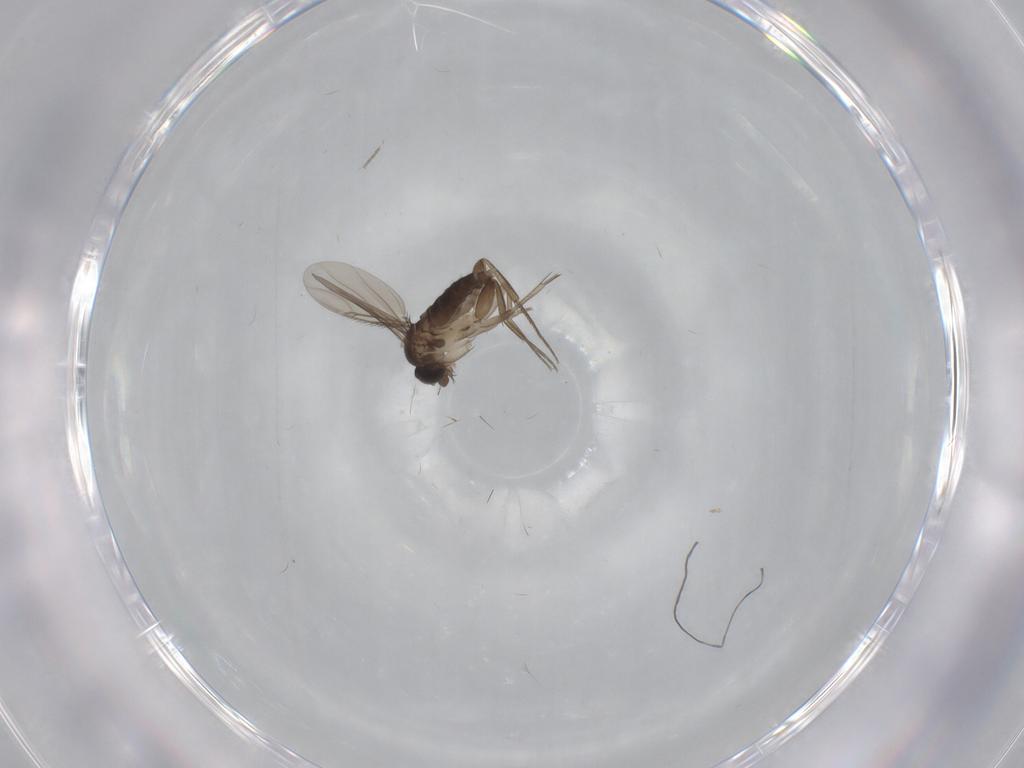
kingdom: Animalia
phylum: Arthropoda
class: Insecta
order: Diptera
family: Phoridae
